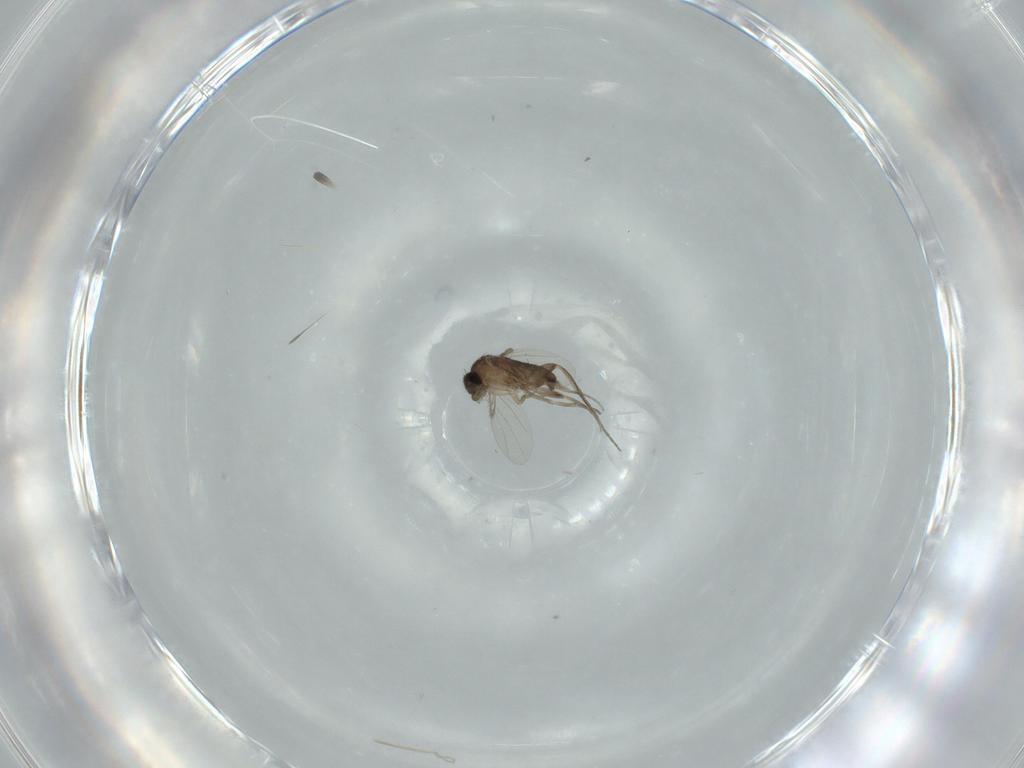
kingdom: Animalia
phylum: Arthropoda
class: Insecta
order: Diptera
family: Phoridae
